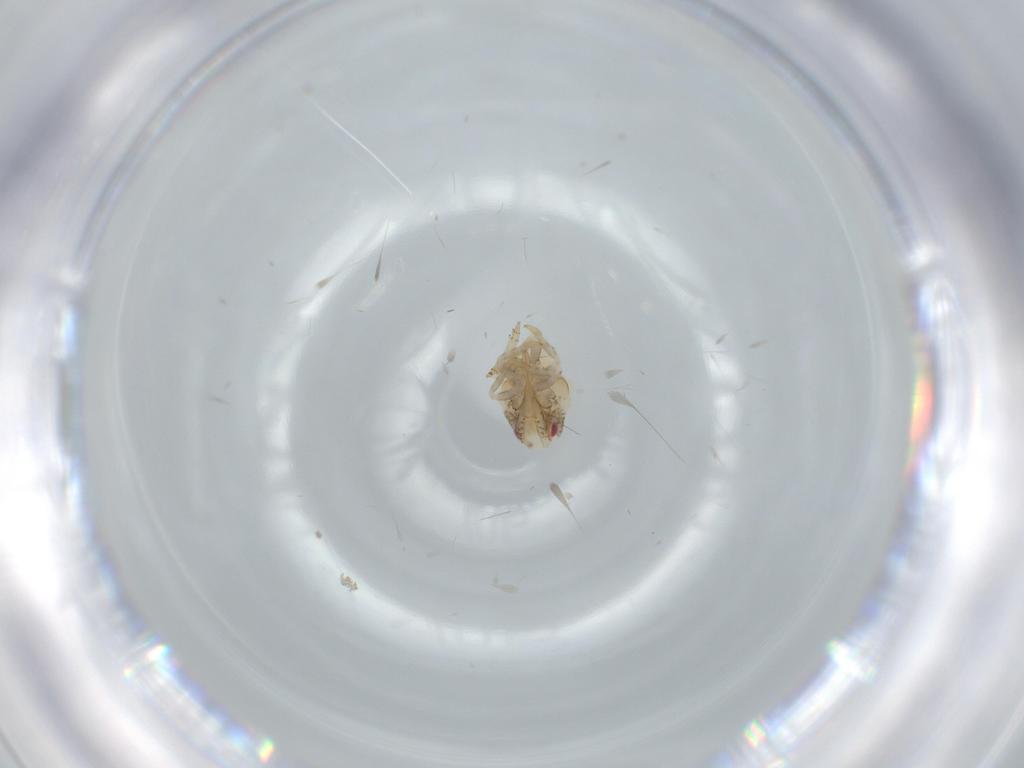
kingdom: Animalia
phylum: Arthropoda
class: Insecta
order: Hemiptera
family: Acanaloniidae
